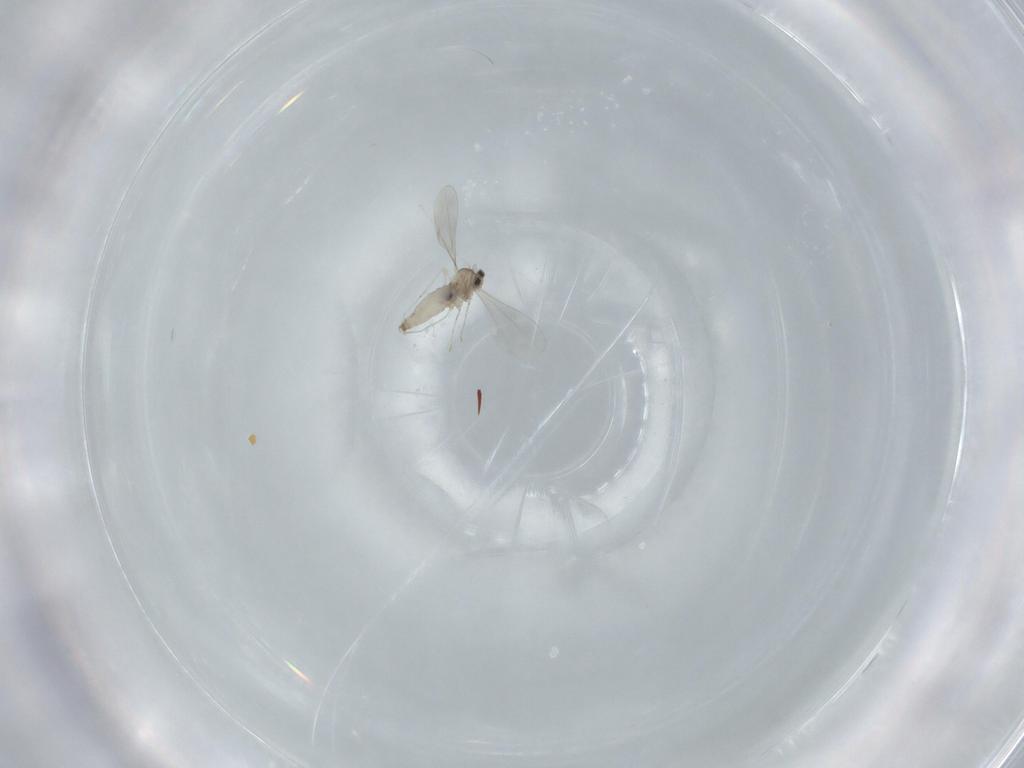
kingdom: Animalia
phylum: Arthropoda
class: Insecta
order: Diptera
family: Cecidomyiidae
